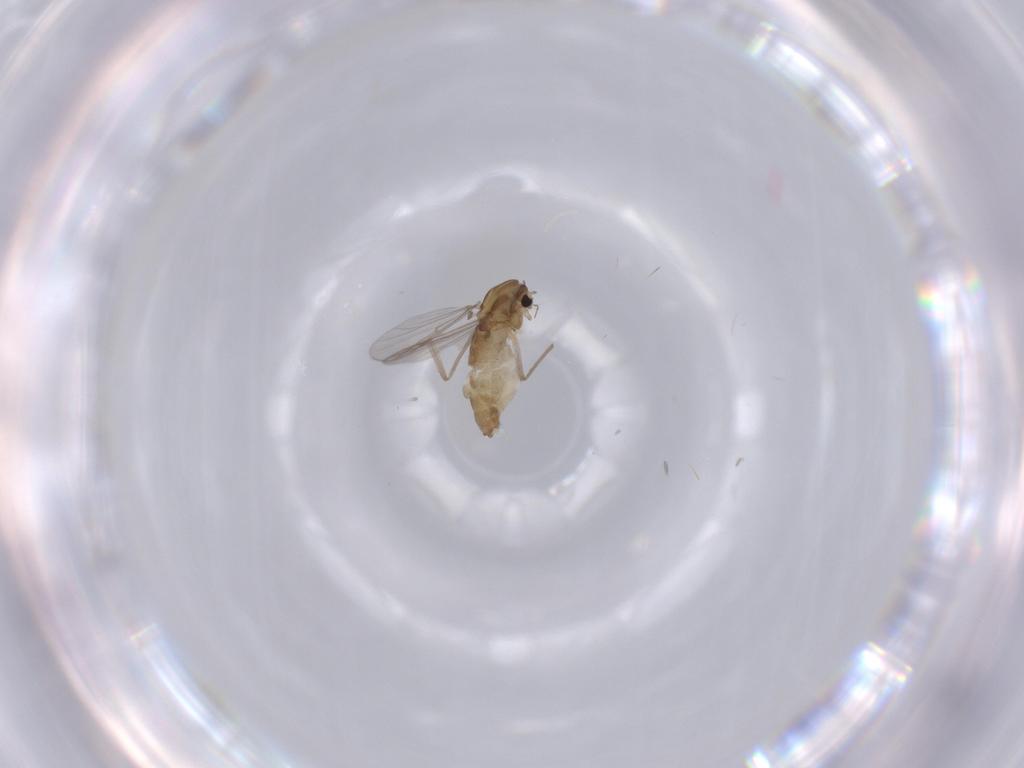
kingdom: Animalia
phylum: Arthropoda
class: Insecta
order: Diptera
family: Chironomidae
